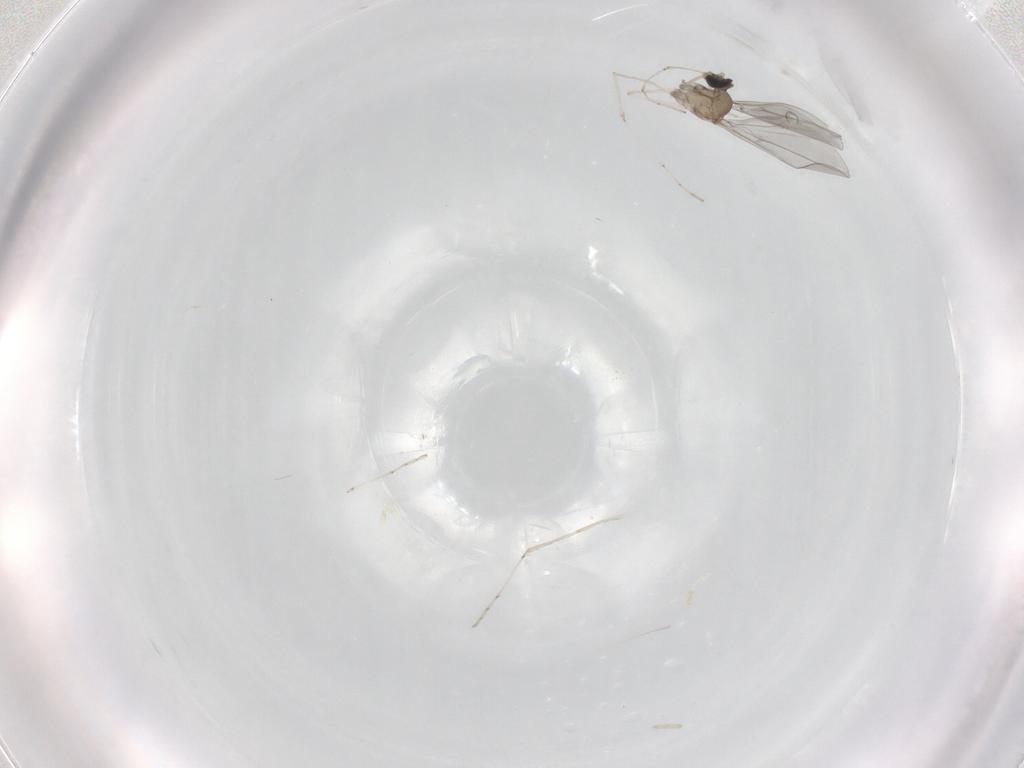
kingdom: Animalia
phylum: Arthropoda
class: Insecta
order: Diptera
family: Cecidomyiidae
